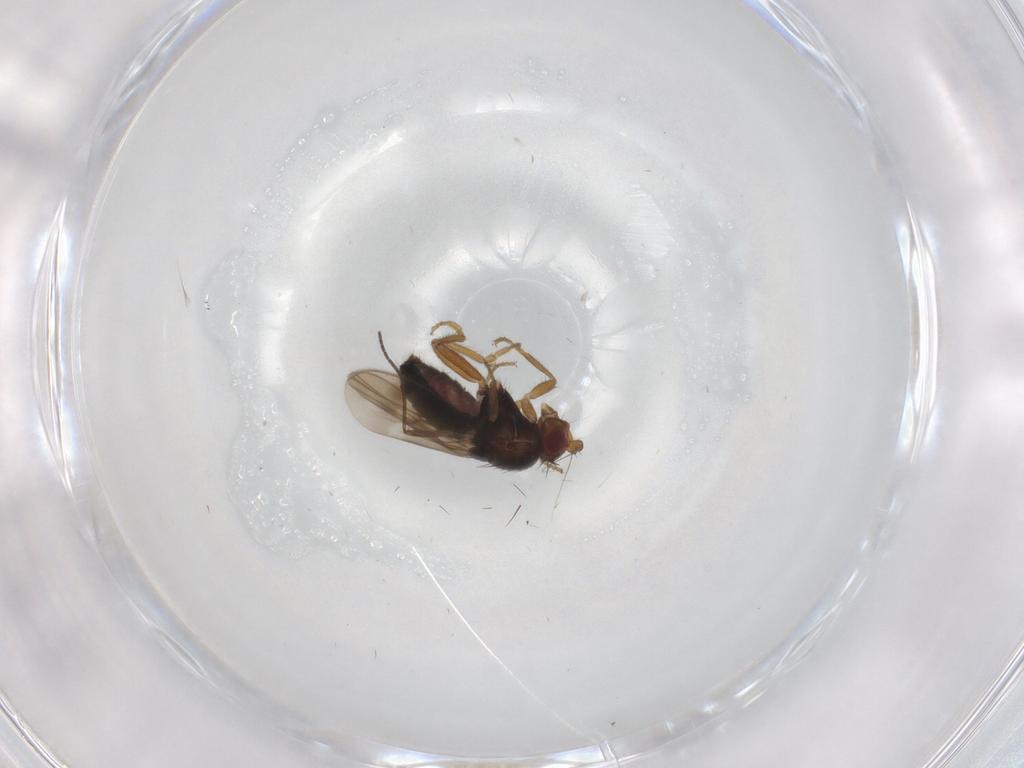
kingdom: Animalia
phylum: Arthropoda
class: Insecta
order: Diptera
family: Sphaeroceridae
